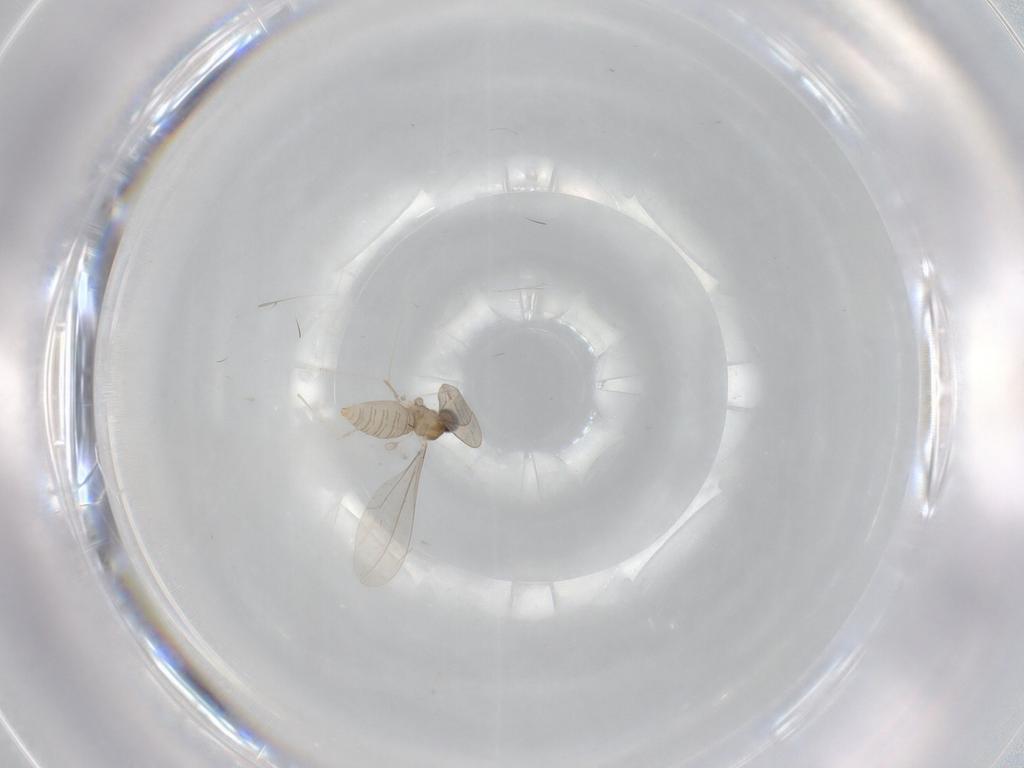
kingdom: Animalia
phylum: Arthropoda
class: Insecta
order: Diptera
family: Cecidomyiidae
